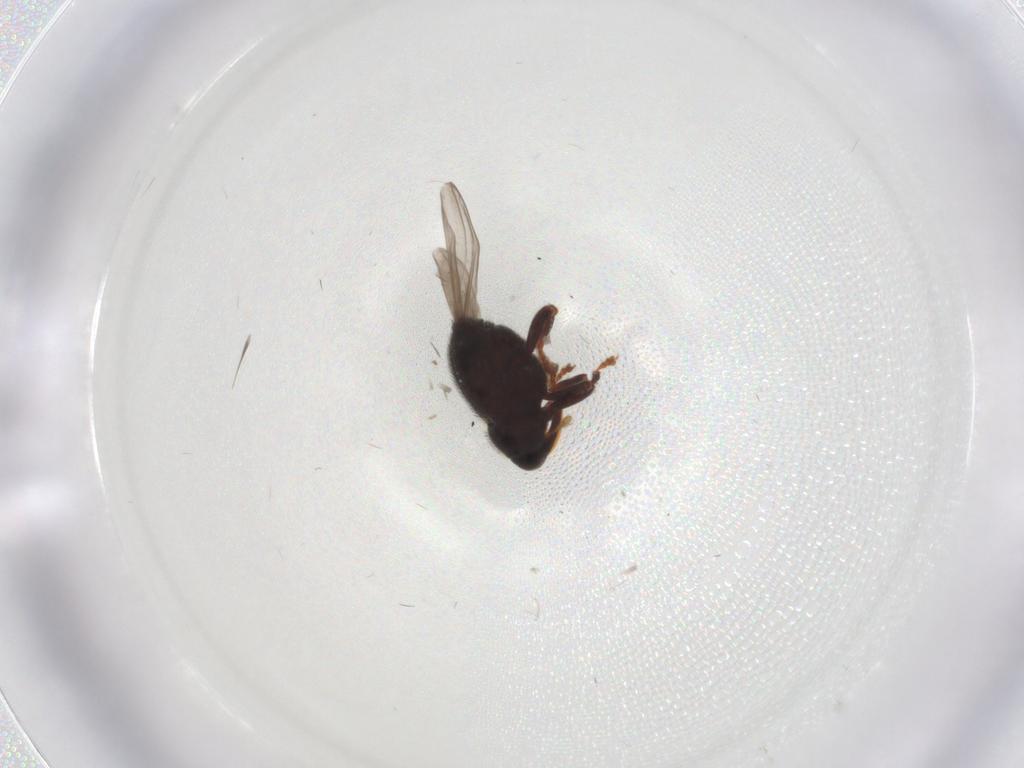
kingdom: Animalia
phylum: Arthropoda
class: Insecta
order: Coleoptera
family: Curculionidae
